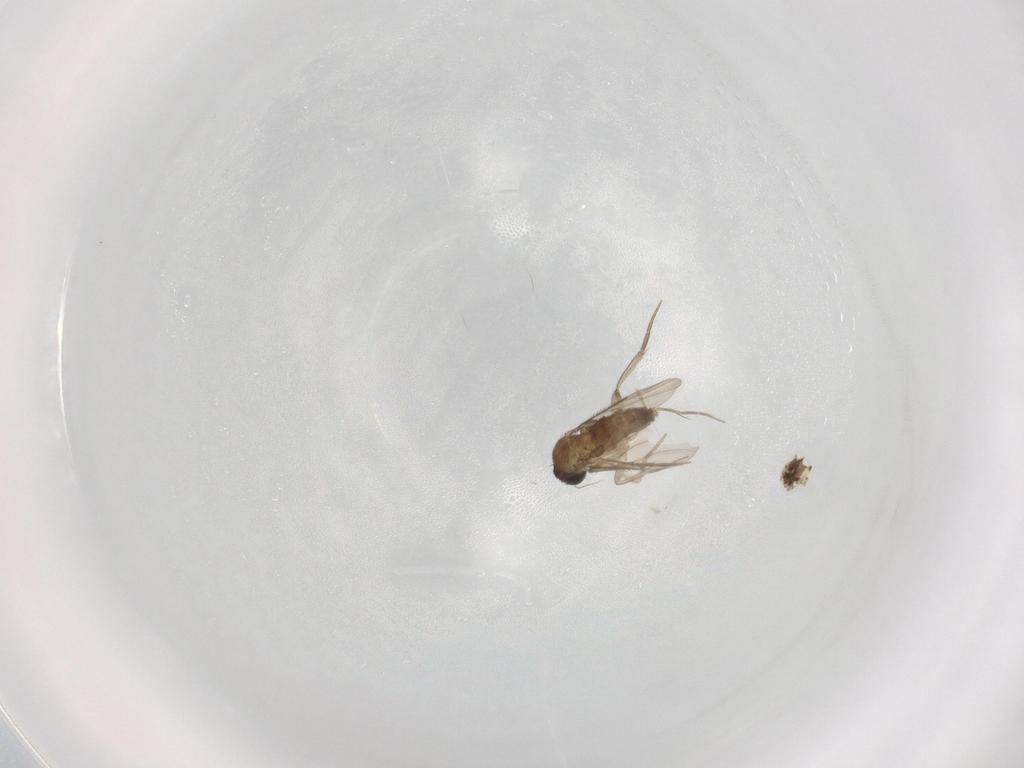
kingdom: Animalia
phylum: Arthropoda
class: Insecta
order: Diptera
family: Phoridae
